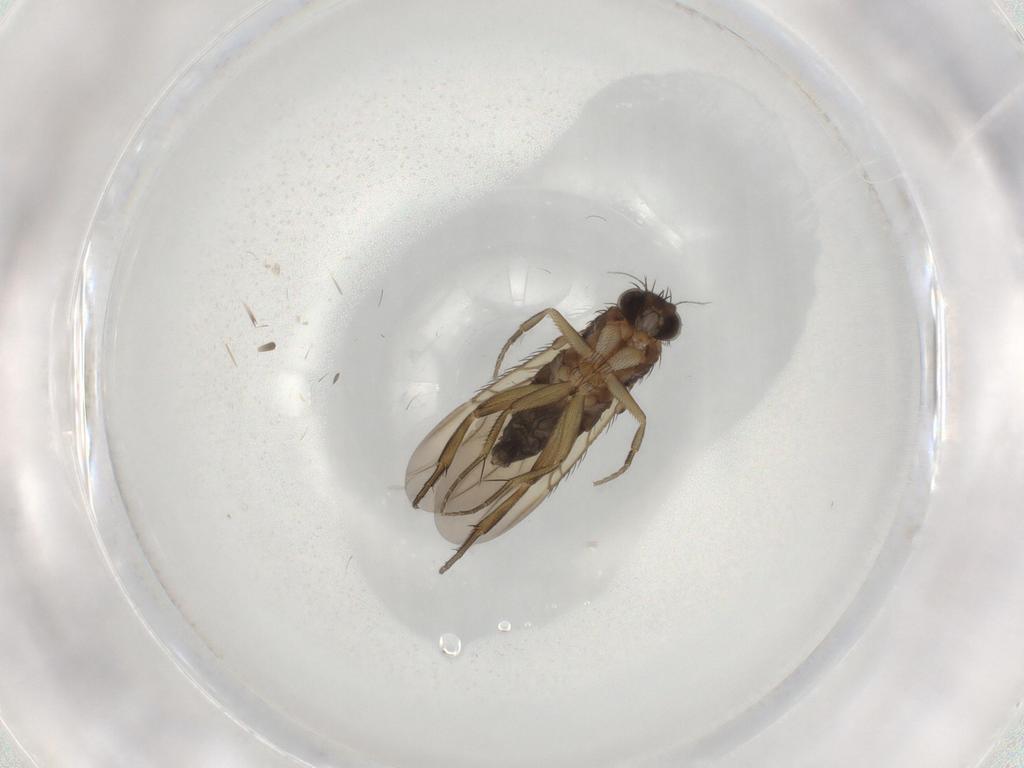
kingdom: Animalia
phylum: Arthropoda
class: Insecta
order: Diptera
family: Phoridae
